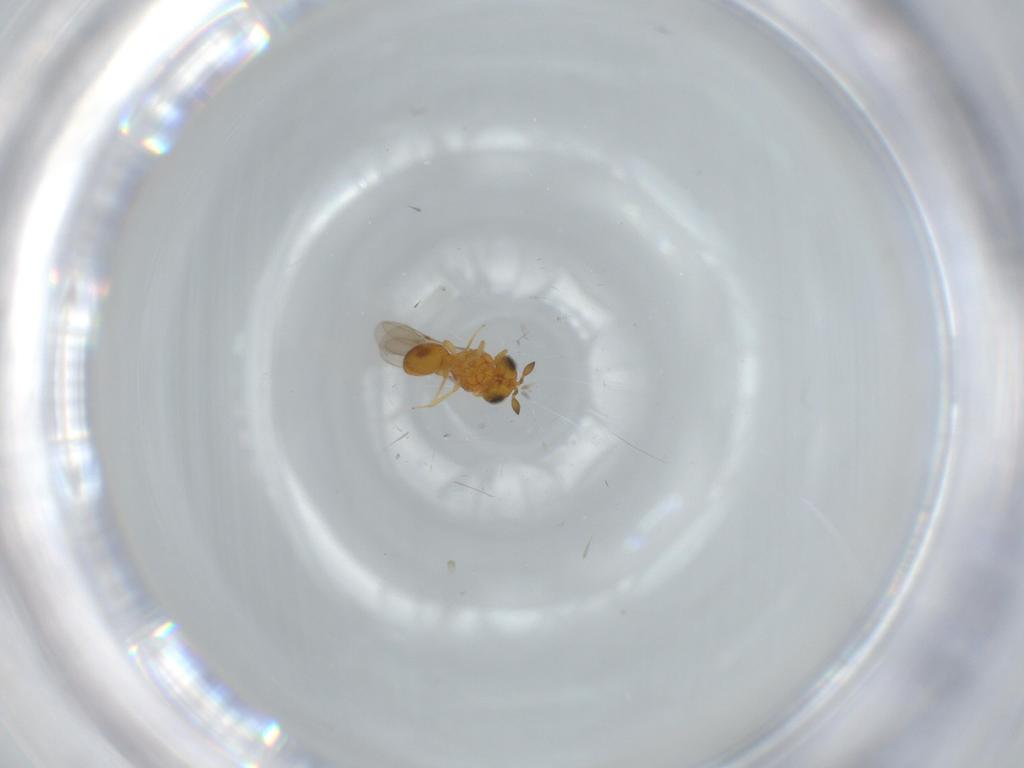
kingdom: Animalia
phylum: Arthropoda
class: Insecta
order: Hymenoptera
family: Scelionidae
